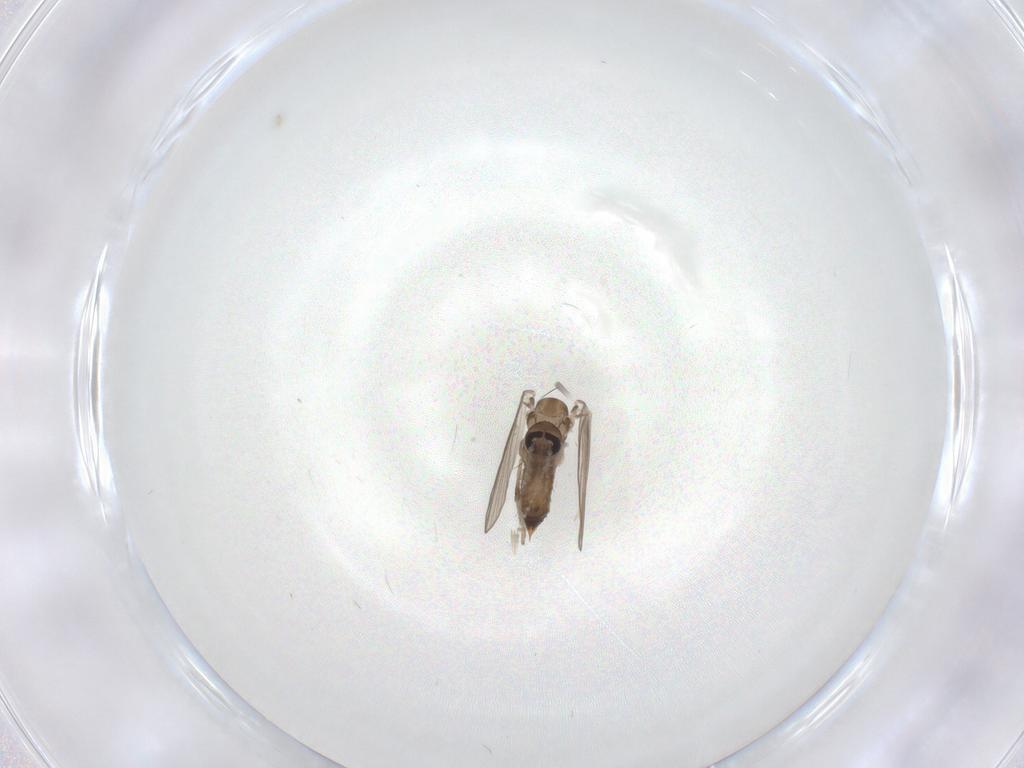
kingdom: Animalia
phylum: Arthropoda
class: Insecta
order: Diptera
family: Psychodidae
